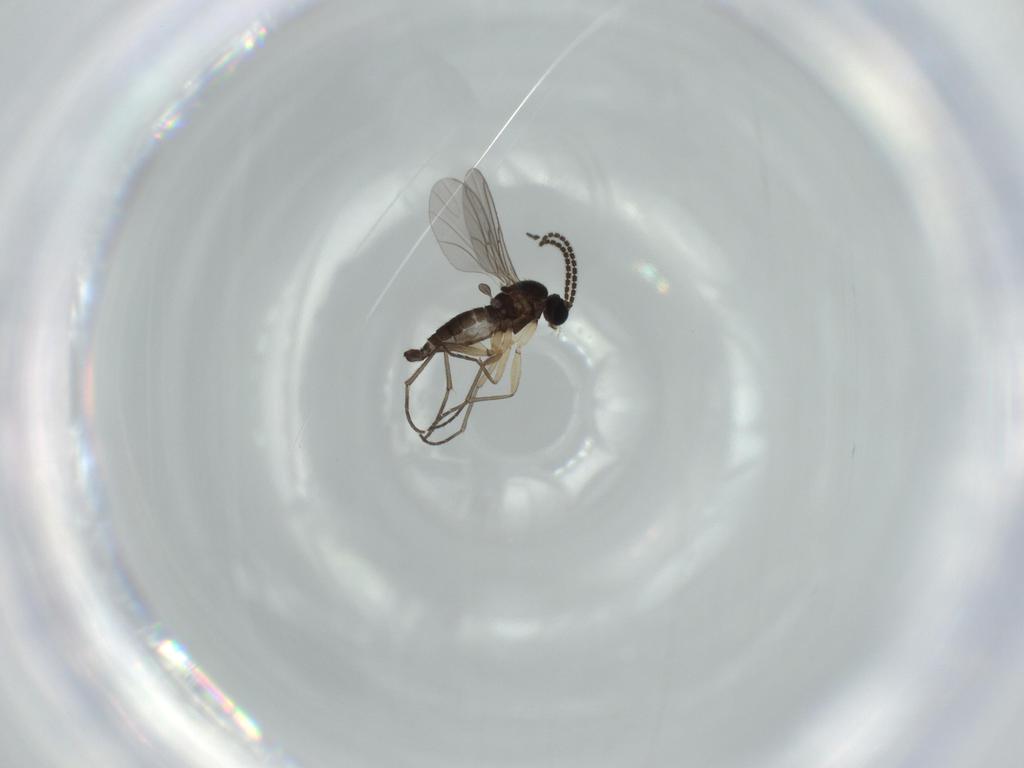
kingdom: Animalia
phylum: Arthropoda
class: Insecta
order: Diptera
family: Sciaridae
